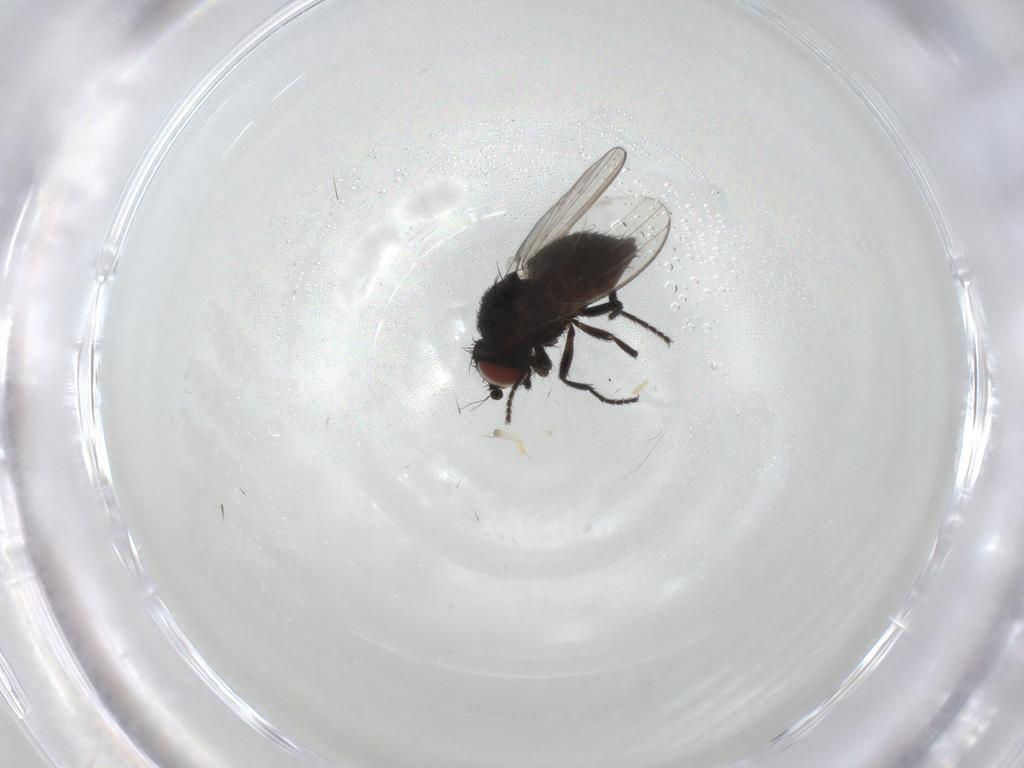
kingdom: Animalia
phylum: Arthropoda
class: Insecta
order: Diptera
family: Milichiidae
